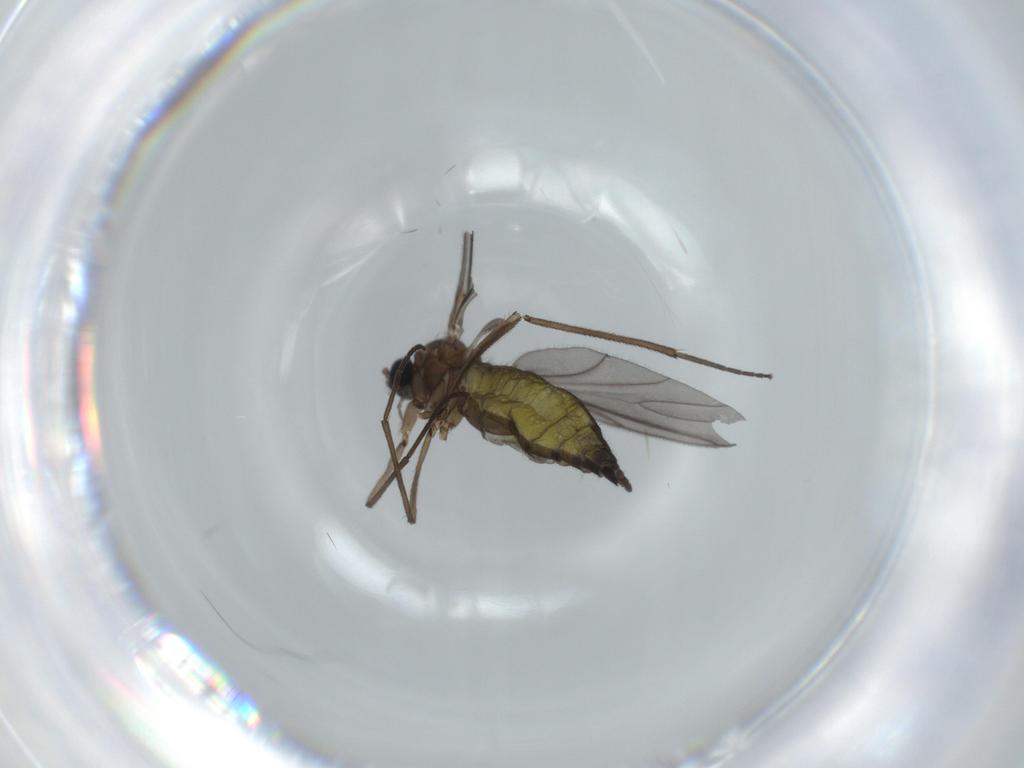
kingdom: Animalia
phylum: Arthropoda
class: Insecta
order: Diptera
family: Sciaridae
